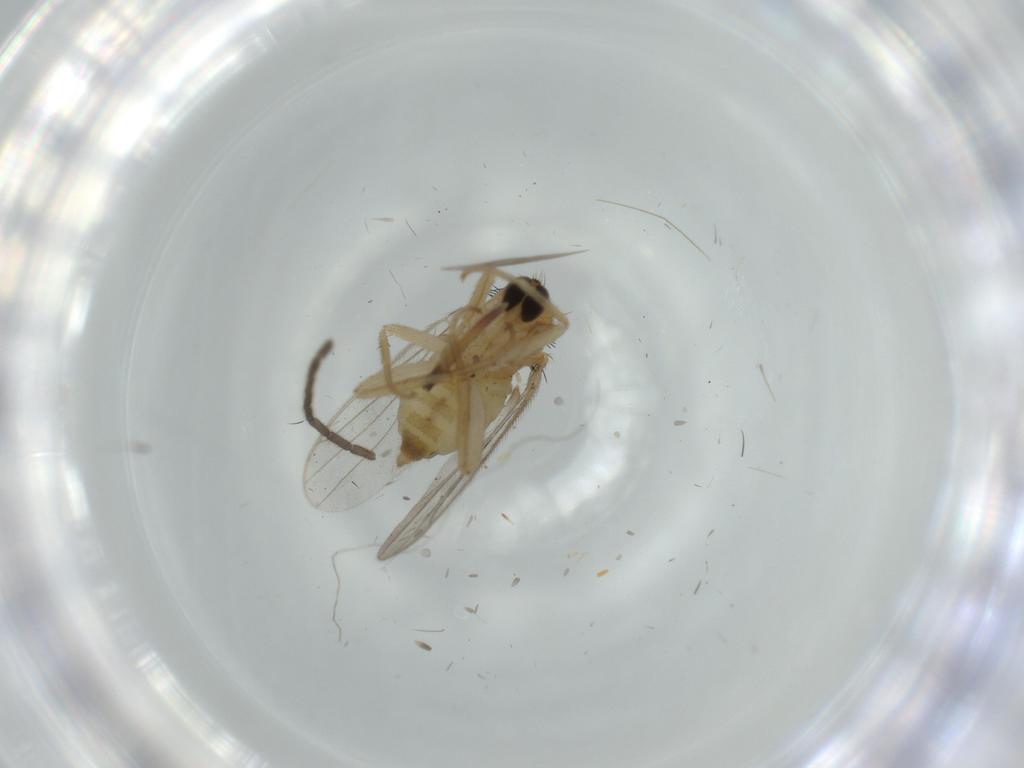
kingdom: Animalia
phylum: Arthropoda
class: Insecta
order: Diptera
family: Hybotidae
